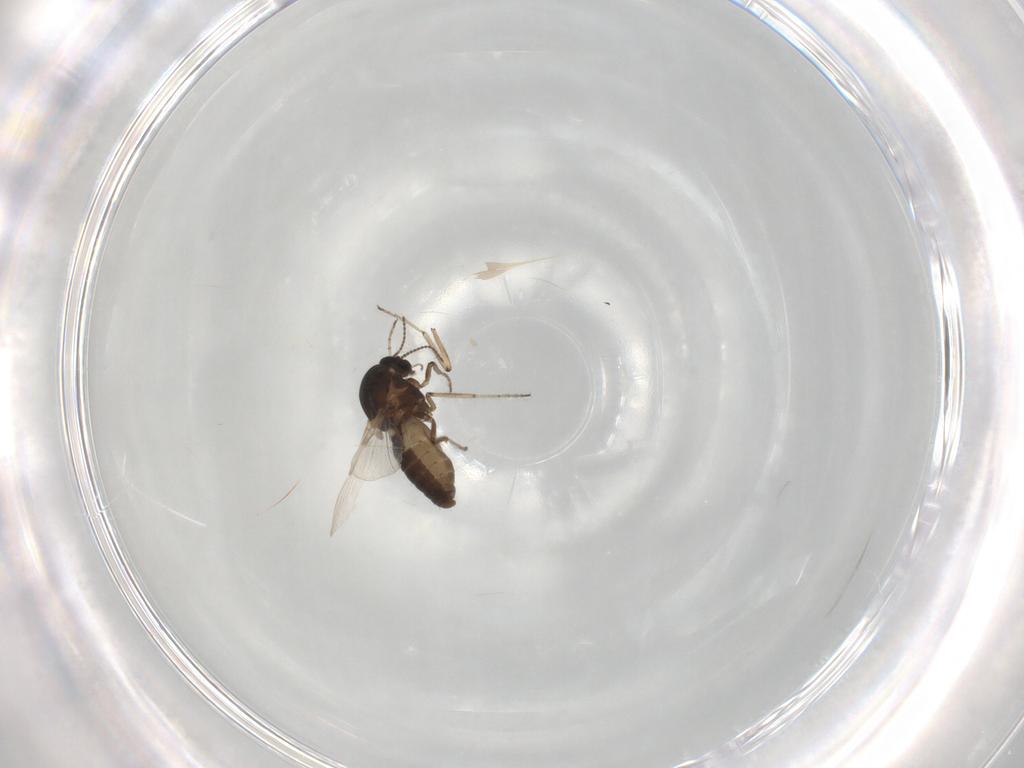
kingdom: Animalia
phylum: Arthropoda
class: Insecta
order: Diptera
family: Ceratopogonidae
